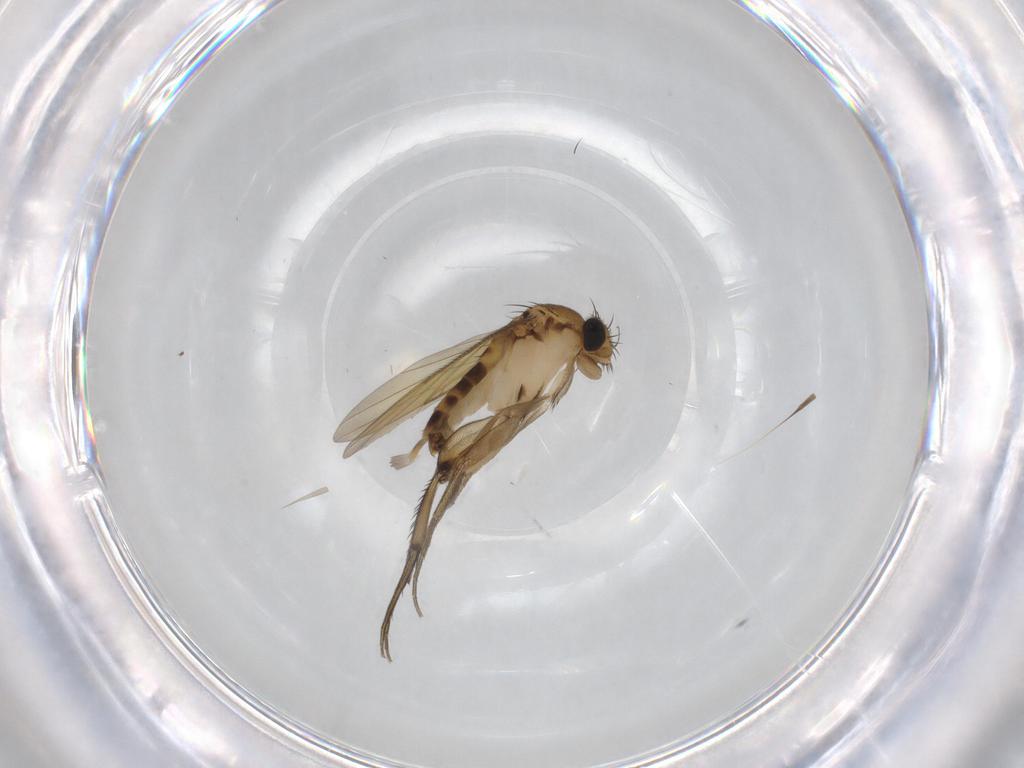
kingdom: Animalia
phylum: Arthropoda
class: Insecta
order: Diptera
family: Phoridae
